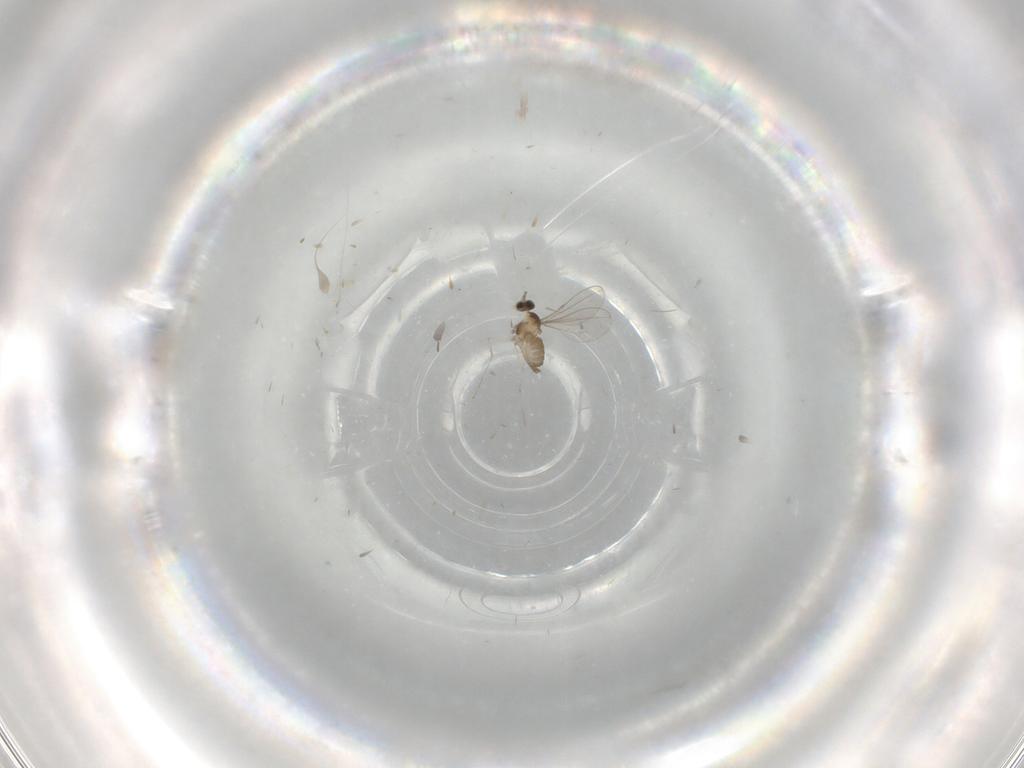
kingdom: Animalia
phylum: Arthropoda
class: Insecta
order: Diptera
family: Cecidomyiidae
